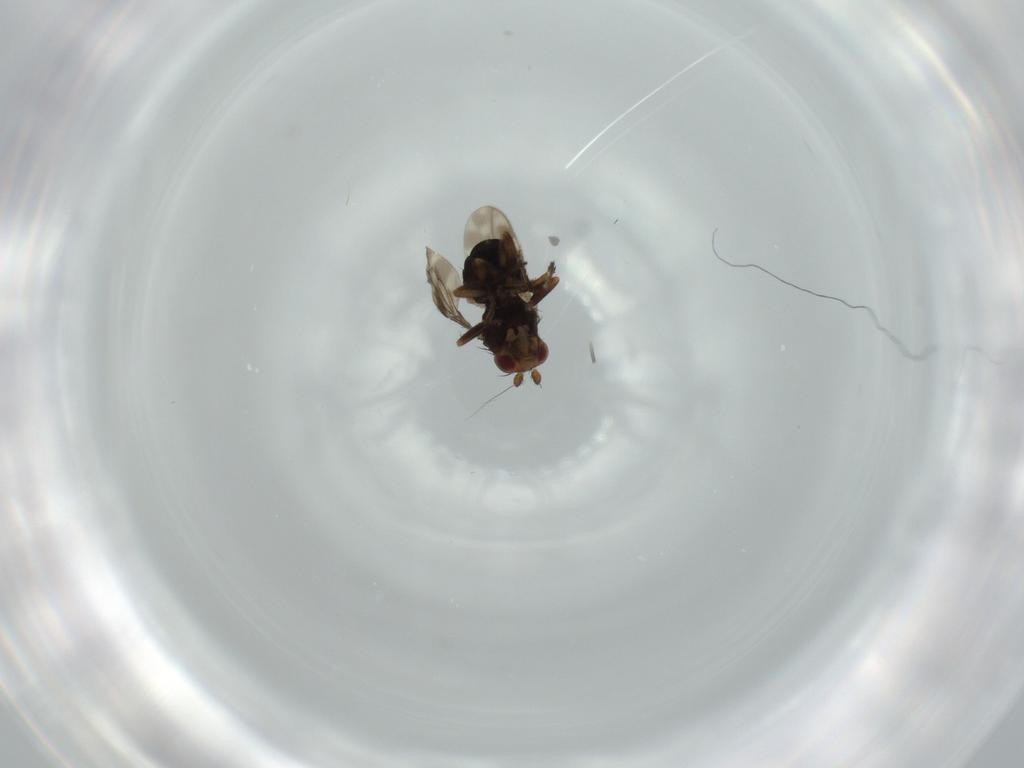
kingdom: Animalia
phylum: Arthropoda
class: Insecta
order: Diptera
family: Sphaeroceridae
